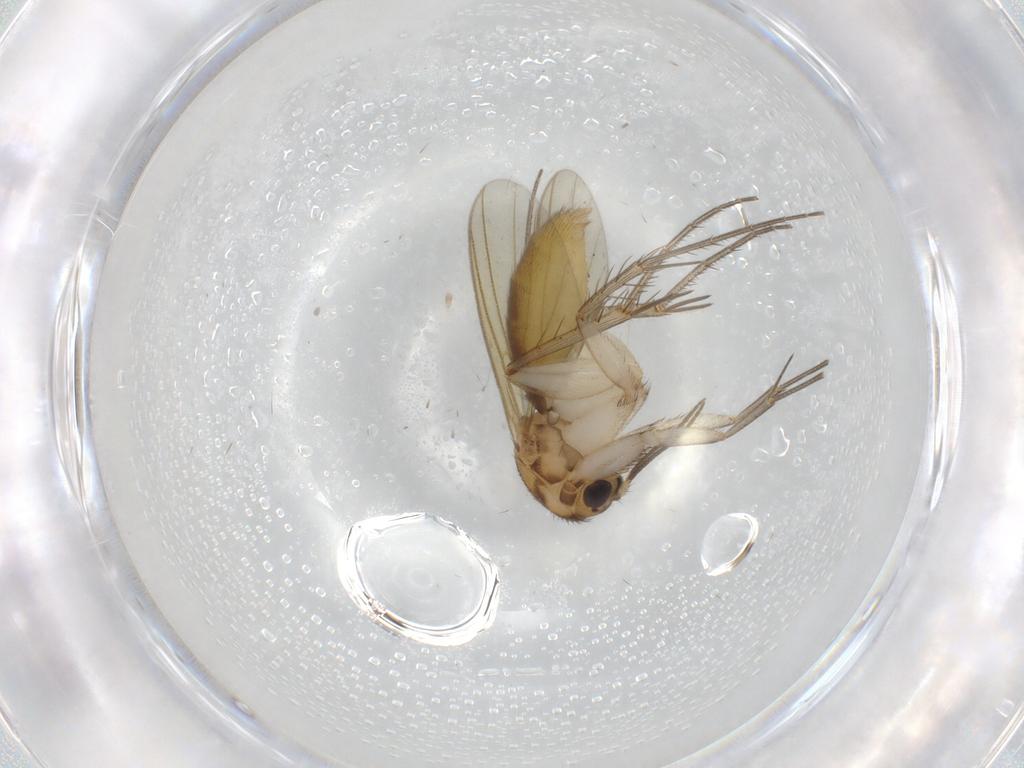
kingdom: Animalia
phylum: Arthropoda
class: Insecta
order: Diptera
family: Mycetophilidae
